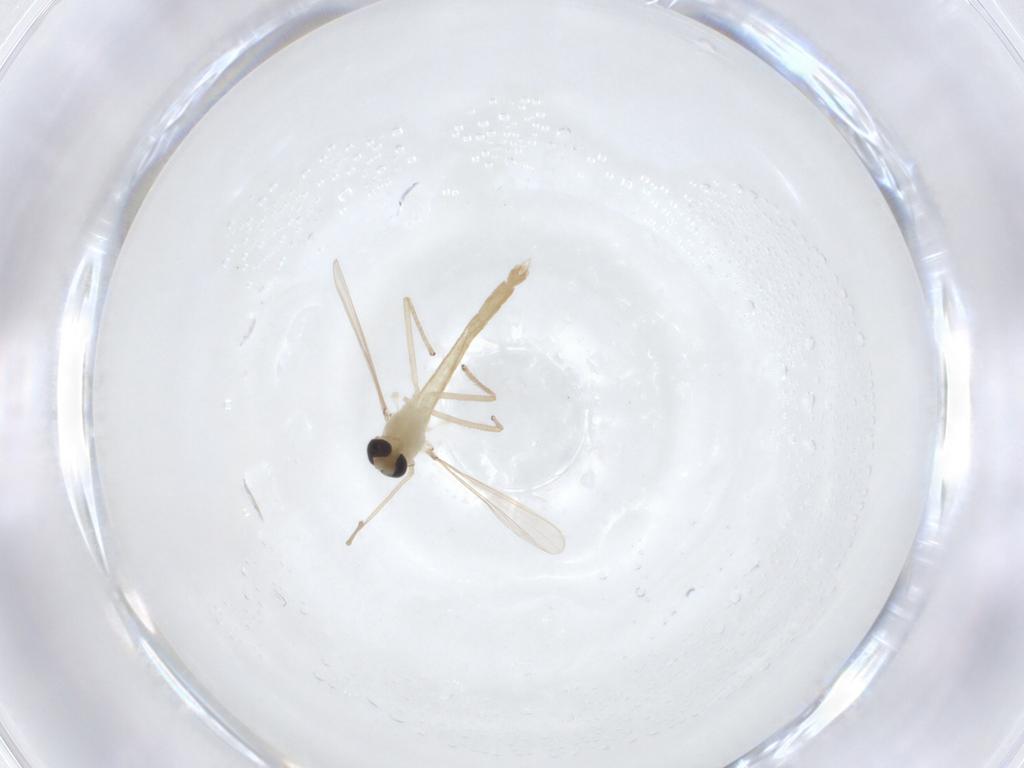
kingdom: Animalia
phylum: Arthropoda
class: Insecta
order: Diptera
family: Chironomidae
